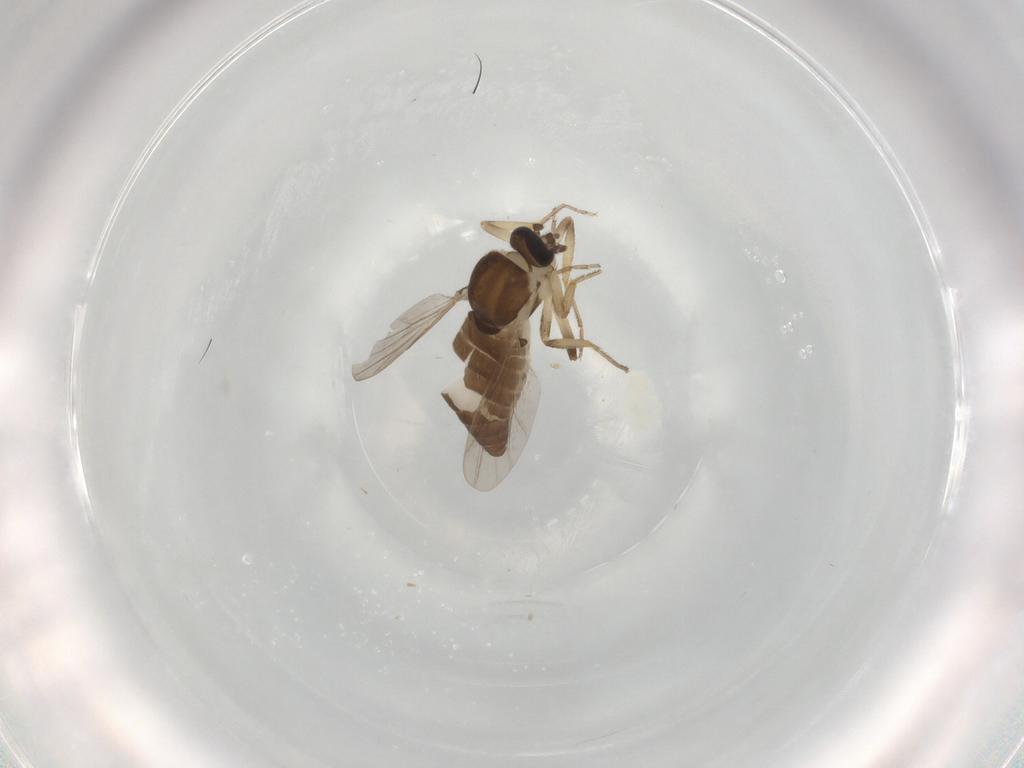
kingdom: Animalia
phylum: Arthropoda
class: Insecta
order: Diptera
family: Ceratopogonidae
